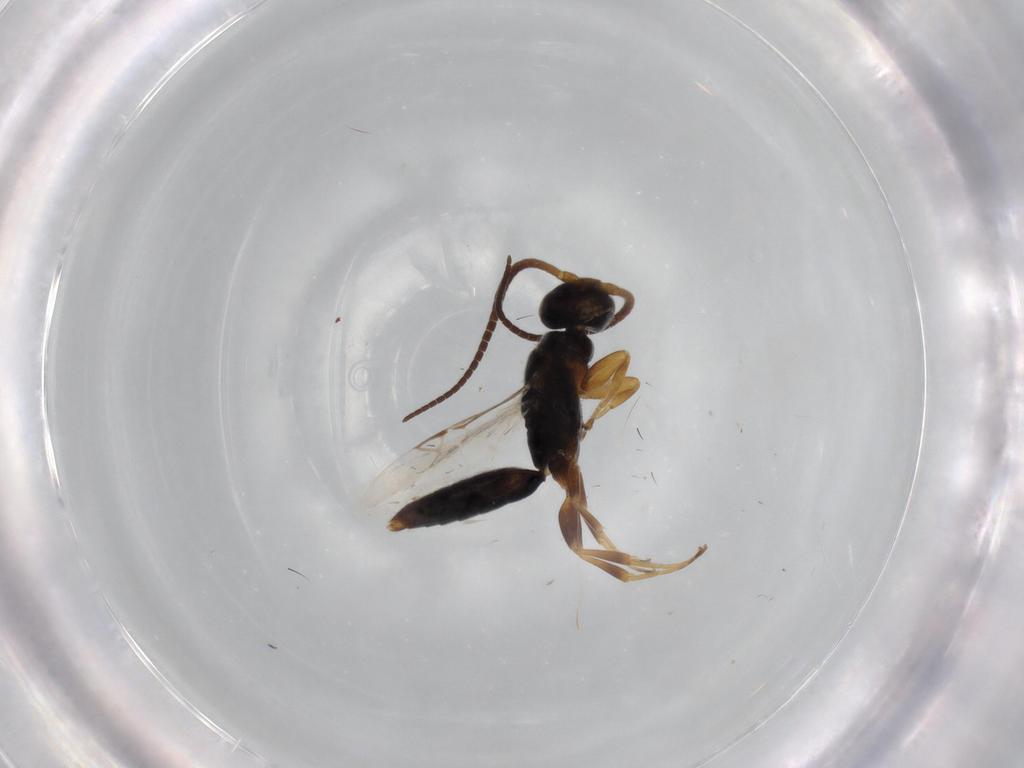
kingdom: Animalia
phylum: Arthropoda
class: Insecta
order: Hymenoptera
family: Sclerogibbidae
